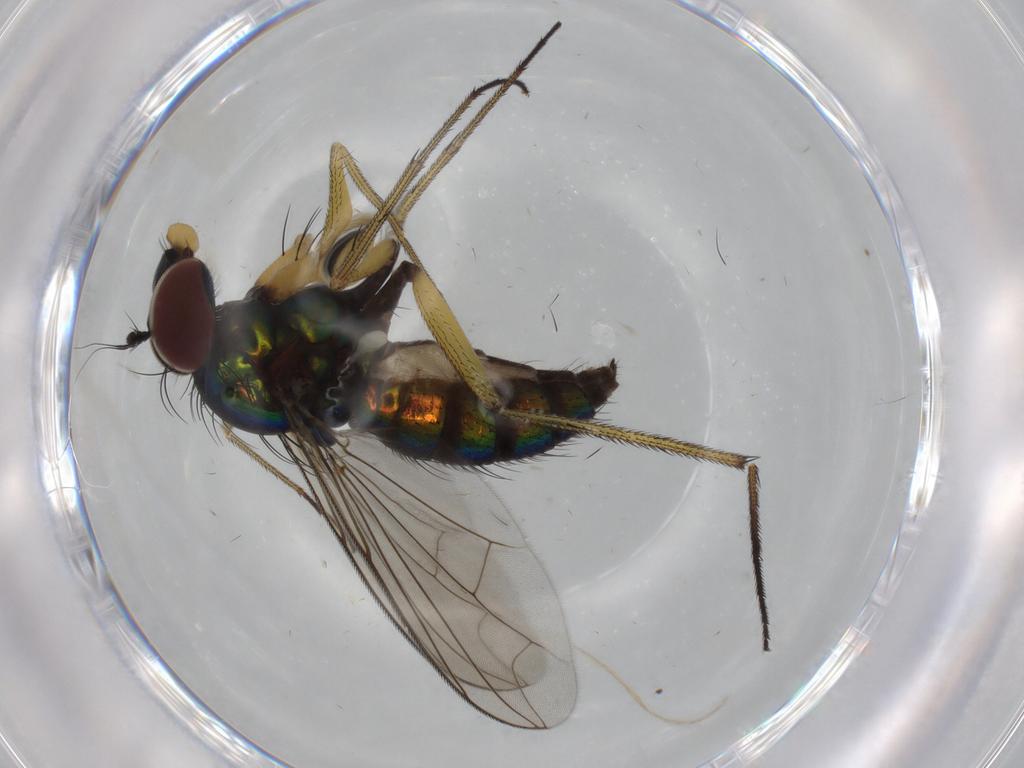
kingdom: Animalia
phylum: Arthropoda
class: Insecta
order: Diptera
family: Dolichopodidae
